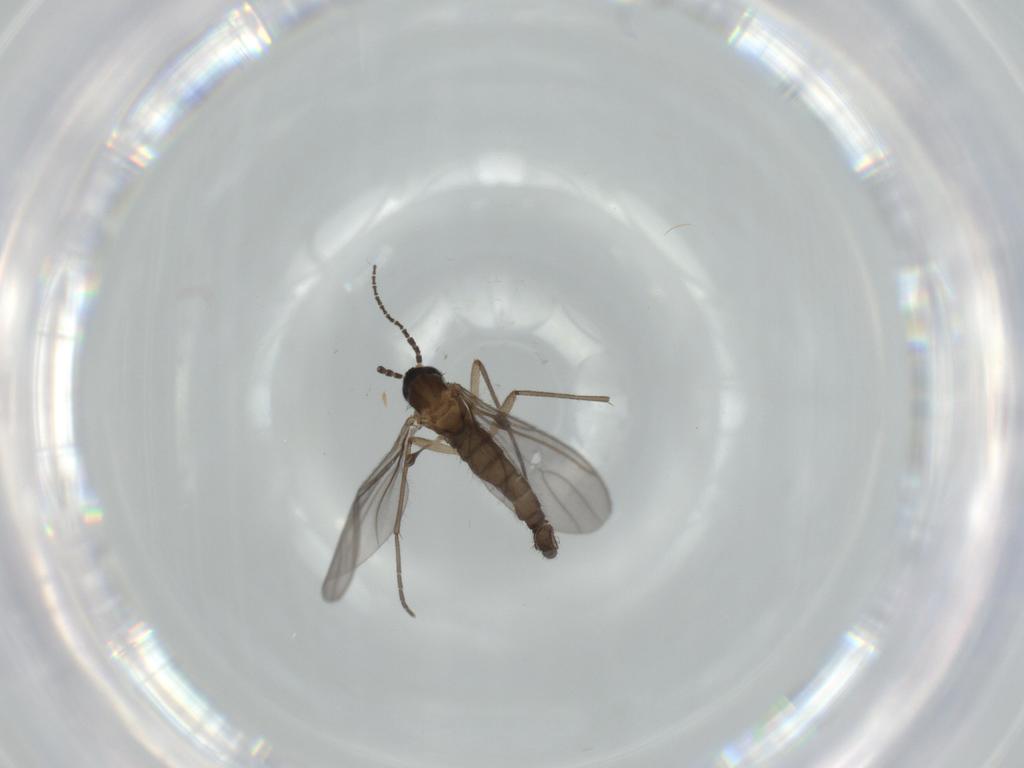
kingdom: Animalia
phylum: Arthropoda
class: Insecta
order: Diptera
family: Sciaridae
